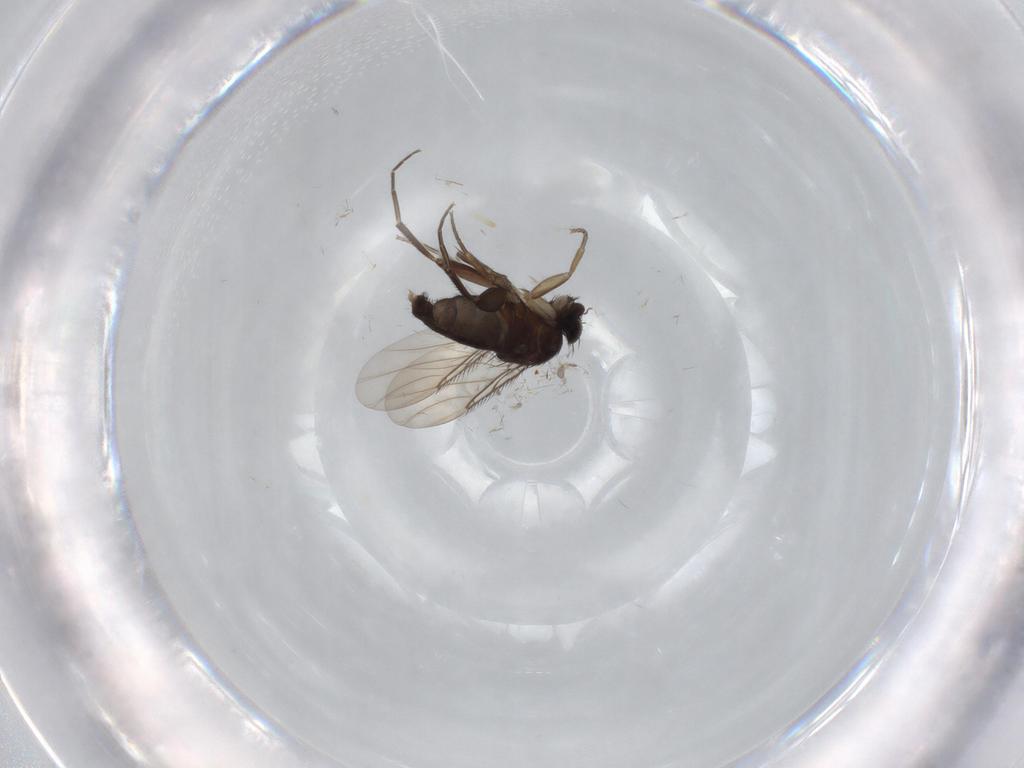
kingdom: Animalia
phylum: Arthropoda
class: Insecta
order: Diptera
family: Phoridae
